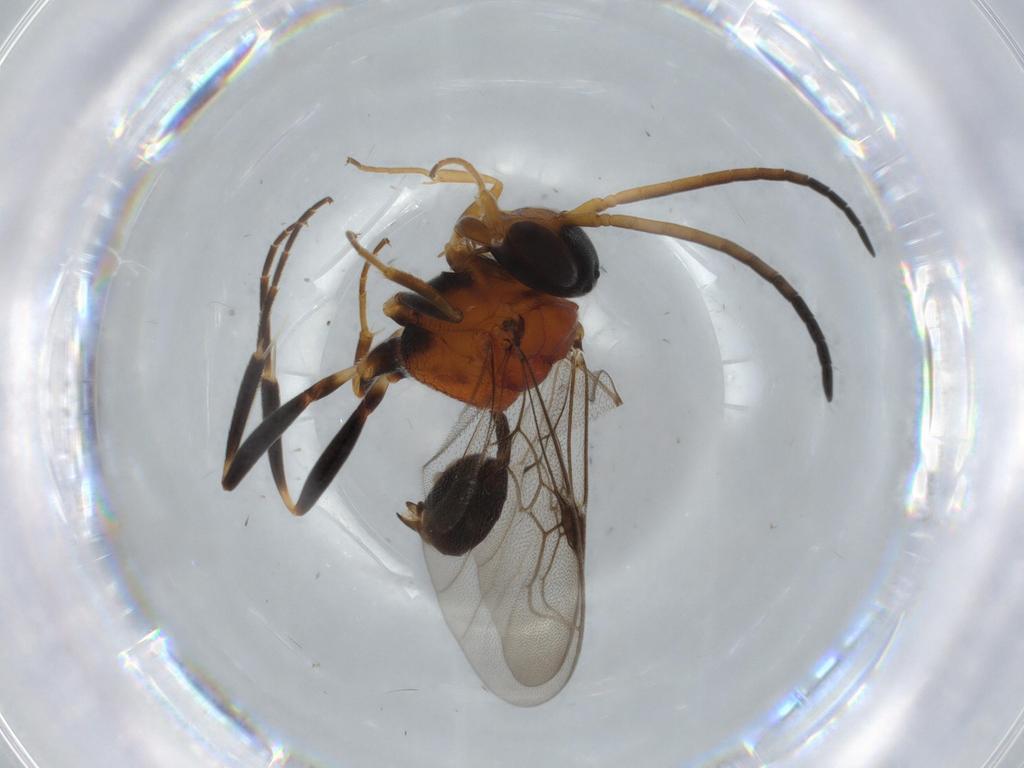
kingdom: Animalia
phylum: Arthropoda
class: Insecta
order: Hymenoptera
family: Evaniidae
